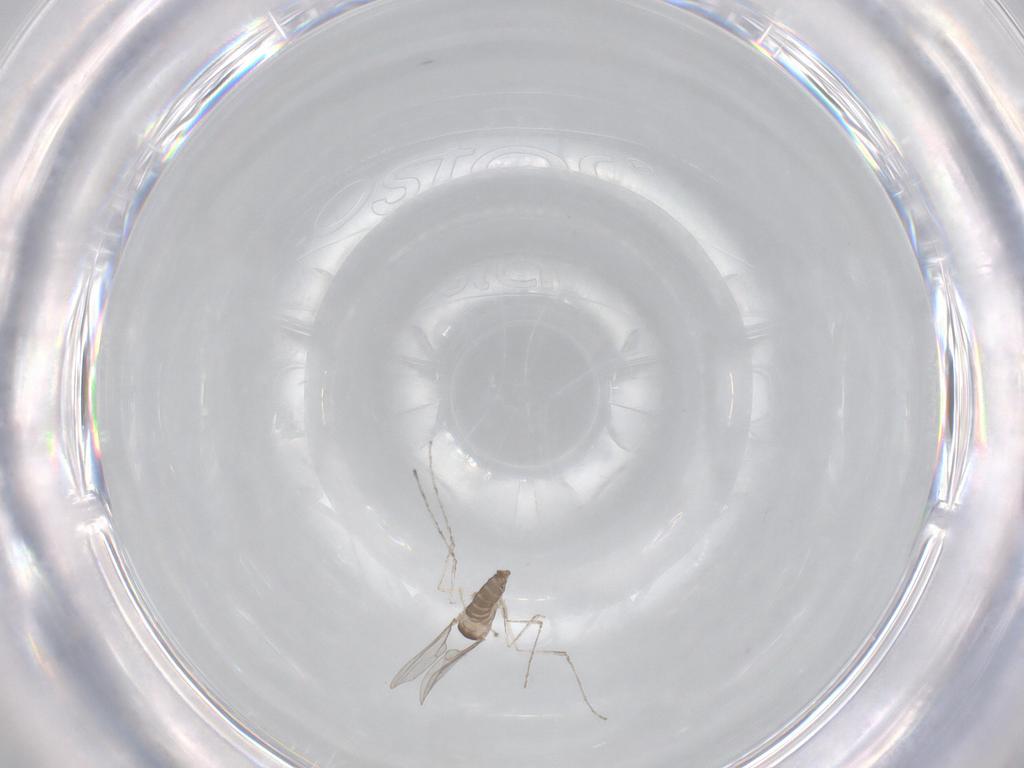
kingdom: Animalia
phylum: Arthropoda
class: Insecta
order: Diptera
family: Cecidomyiidae
